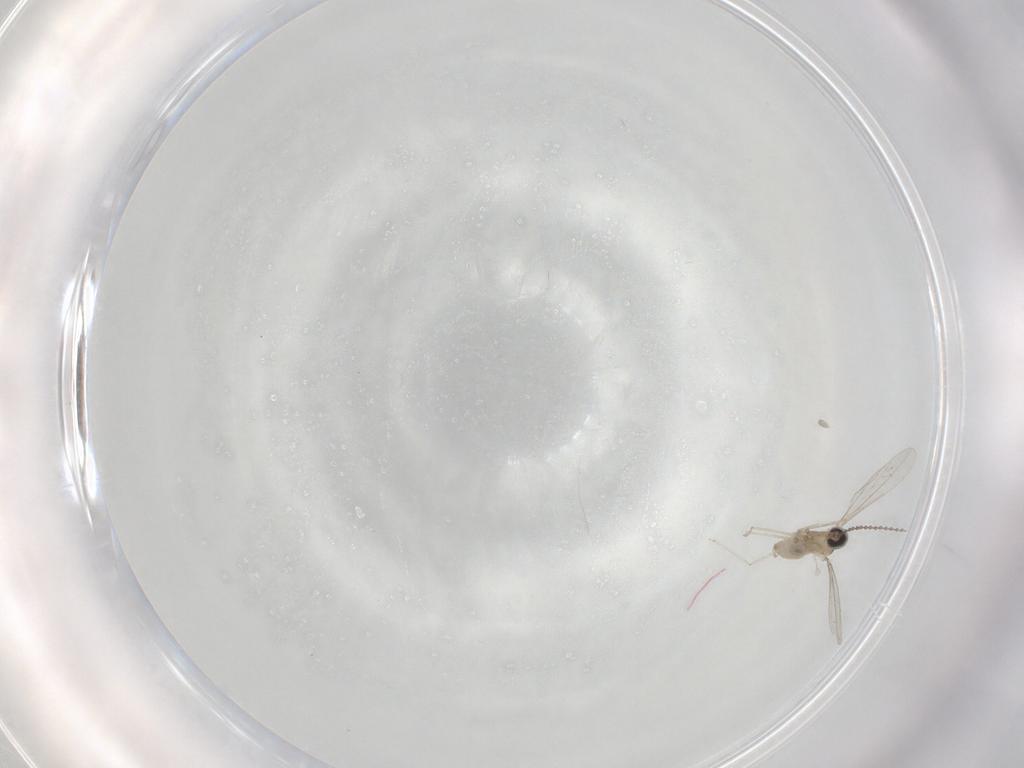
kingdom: Animalia
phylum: Arthropoda
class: Insecta
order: Diptera
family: Cecidomyiidae
